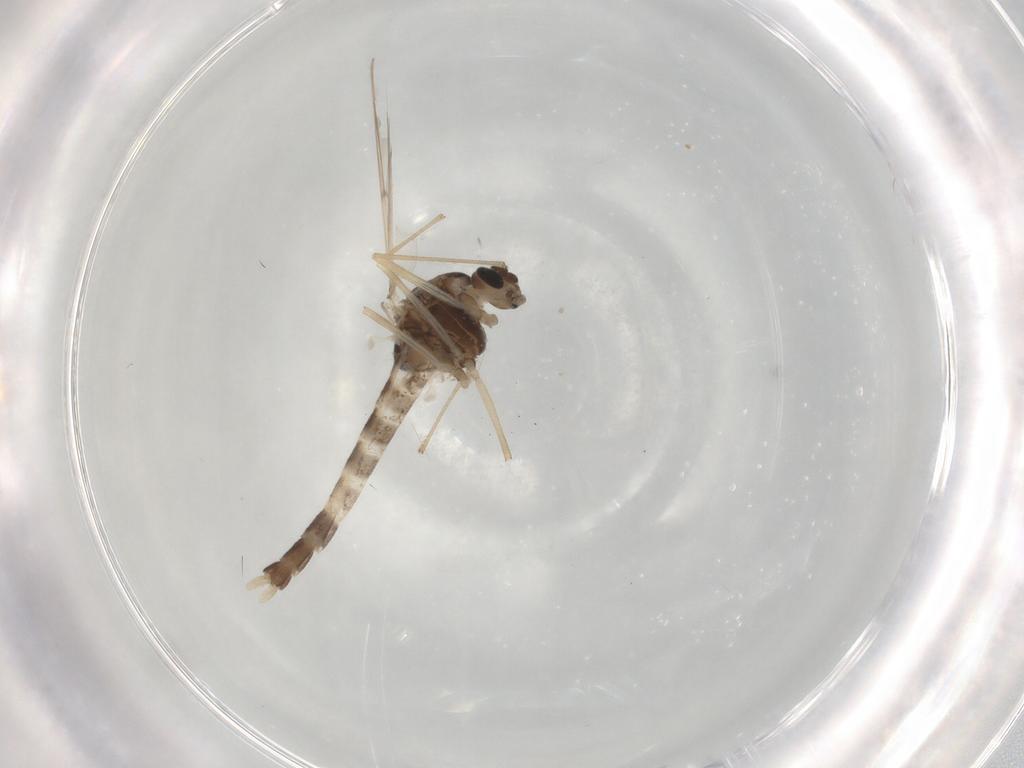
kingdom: Animalia
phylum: Arthropoda
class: Insecta
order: Diptera
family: Chironomidae
